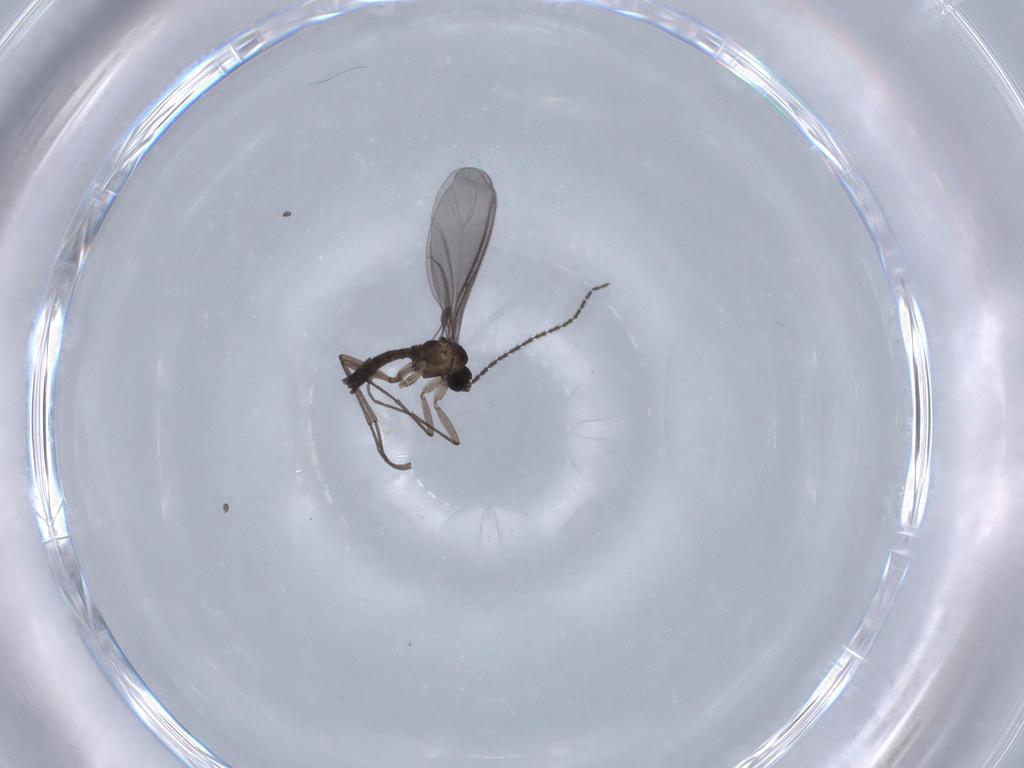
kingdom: Animalia
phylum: Arthropoda
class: Insecta
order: Diptera
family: Sciaridae
